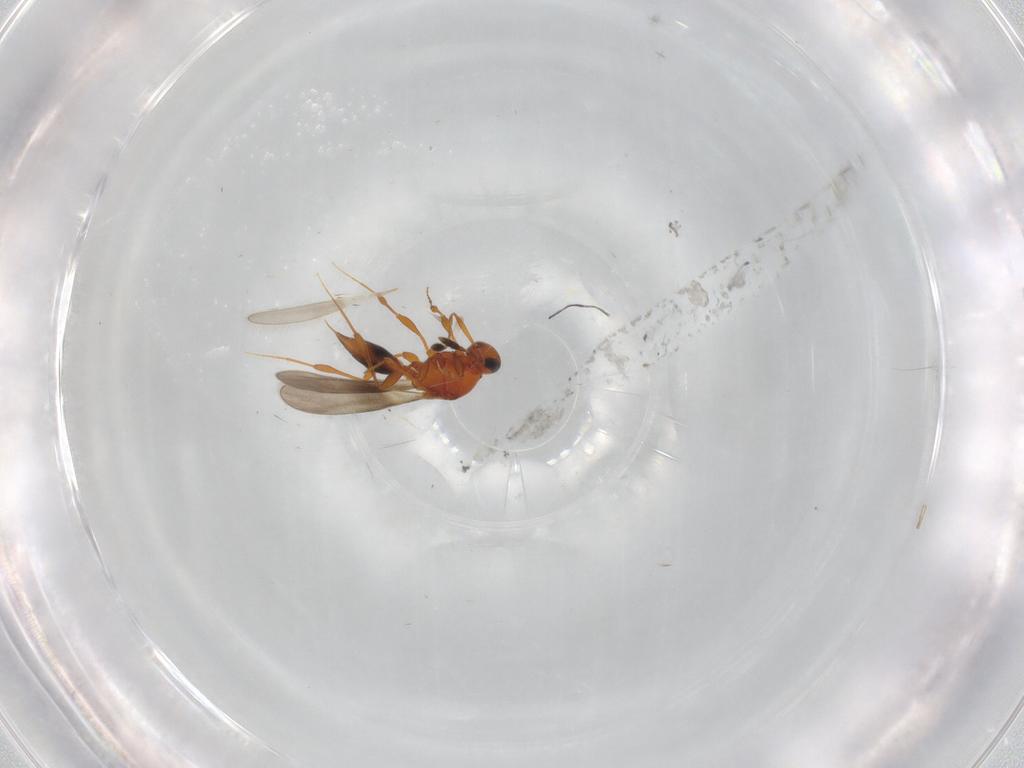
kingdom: Animalia
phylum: Arthropoda
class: Insecta
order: Hymenoptera
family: Platygastridae
